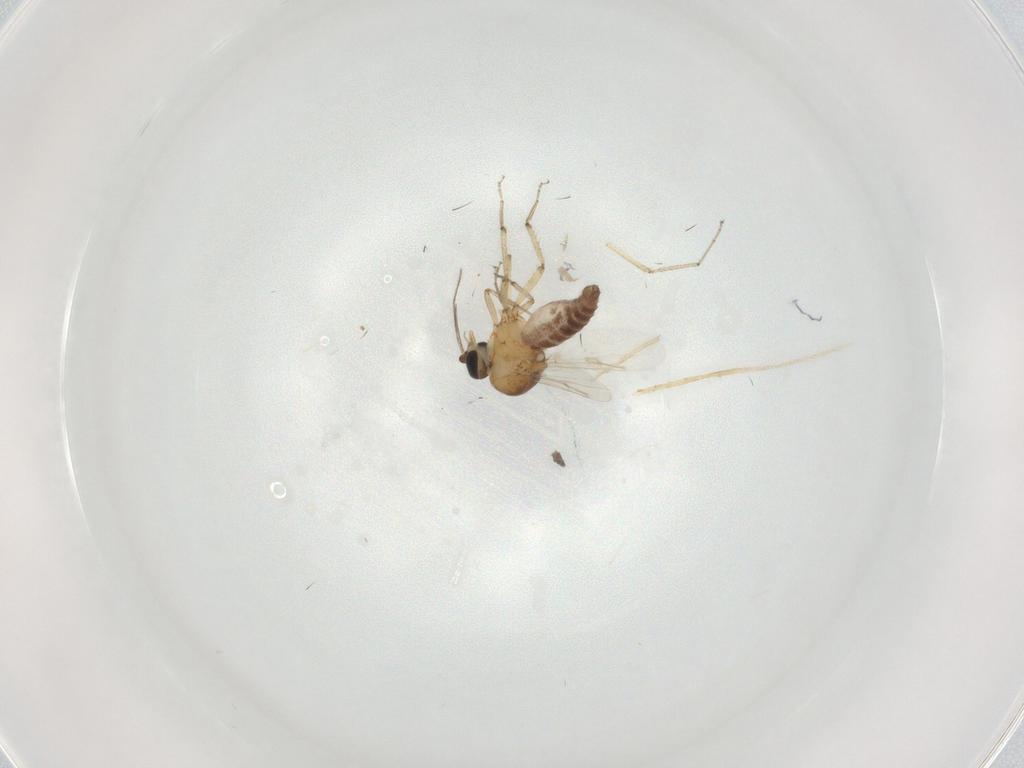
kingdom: Animalia
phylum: Arthropoda
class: Insecta
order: Diptera
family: Ceratopogonidae
